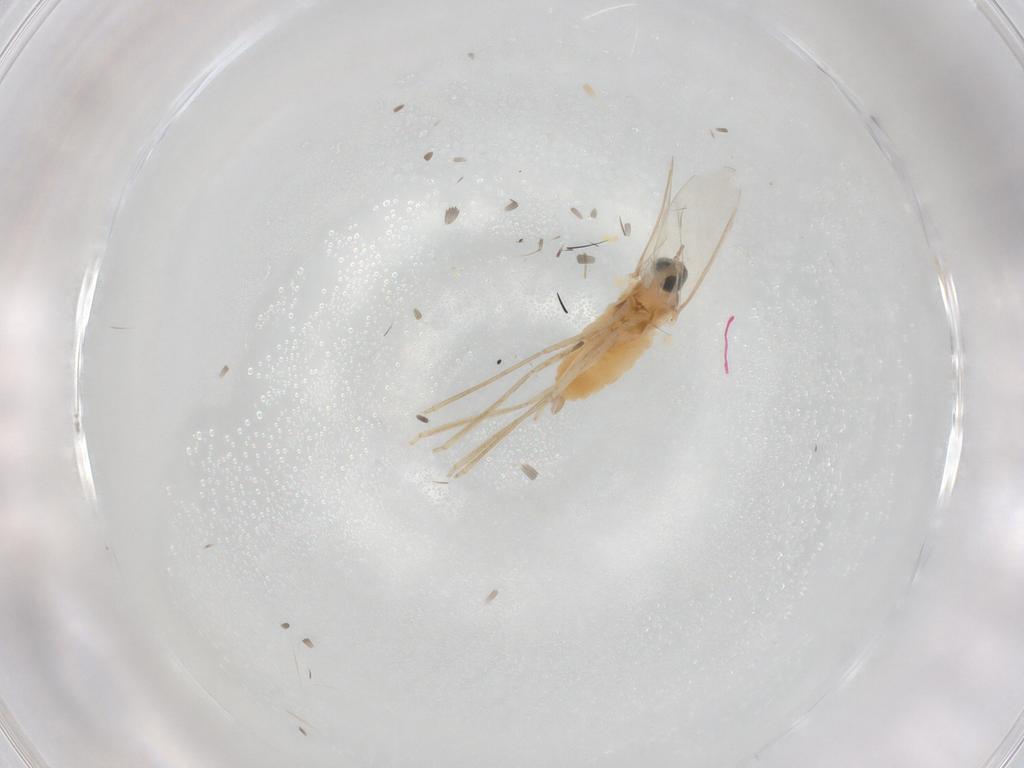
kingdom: Animalia
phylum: Arthropoda
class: Insecta
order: Diptera
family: Cecidomyiidae
